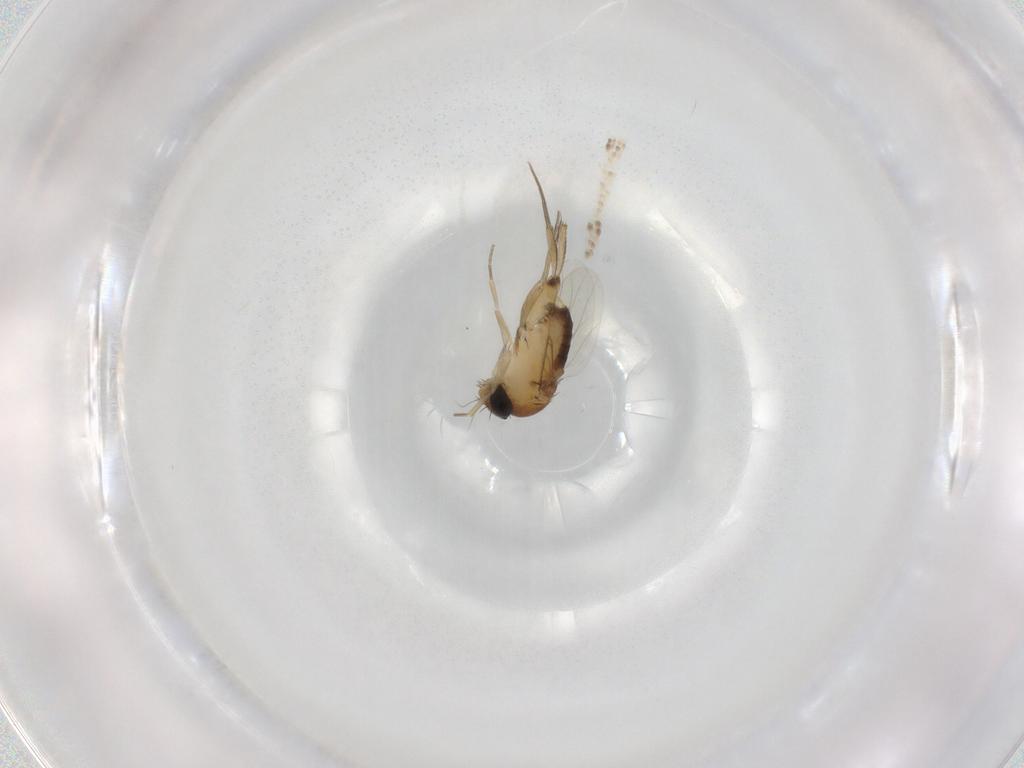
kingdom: Animalia
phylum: Arthropoda
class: Insecta
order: Diptera
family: Phoridae
